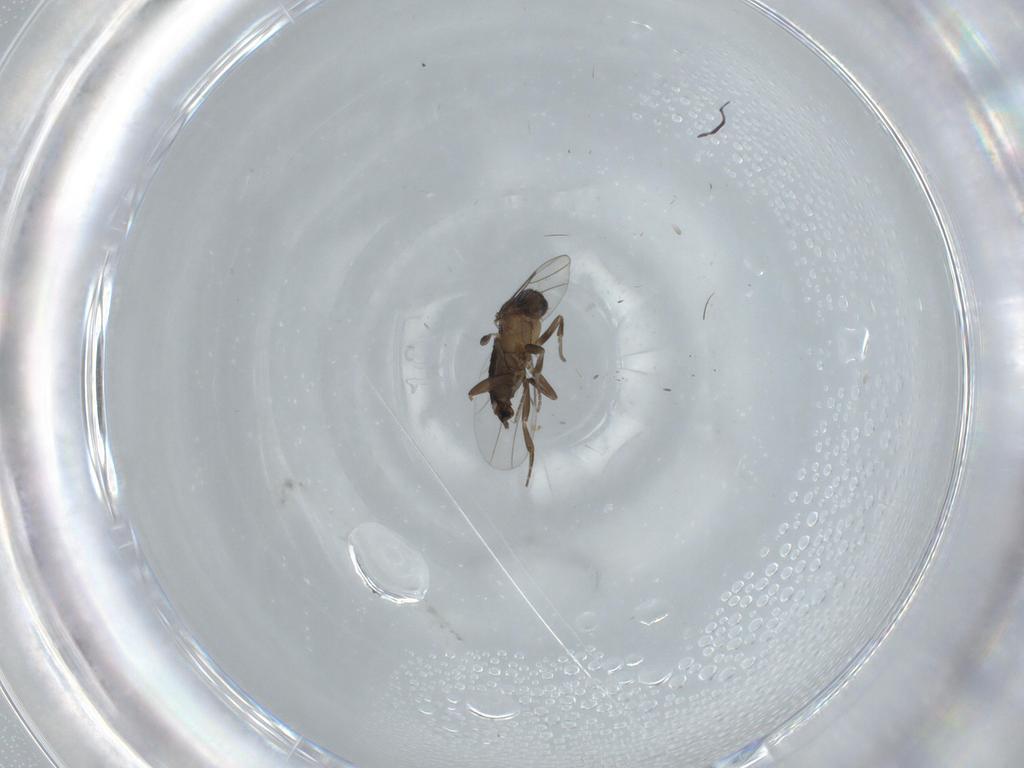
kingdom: Animalia
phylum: Arthropoda
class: Insecta
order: Diptera
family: Phoridae
